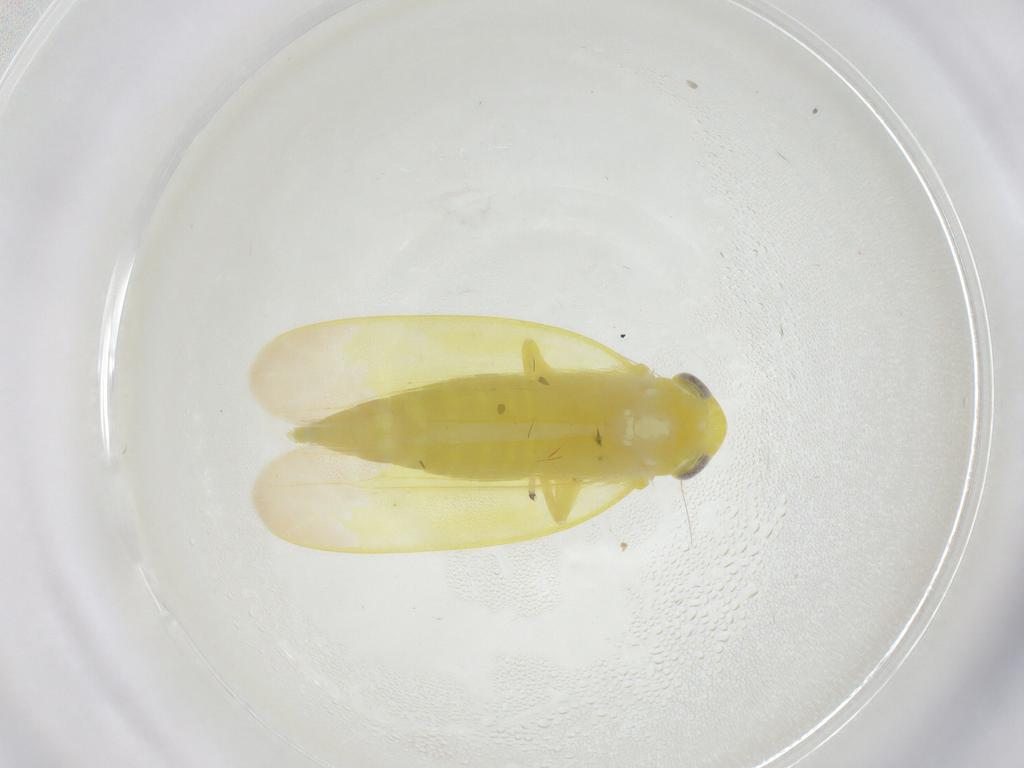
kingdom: Animalia
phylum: Arthropoda
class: Insecta
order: Hemiptera
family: Cicadellidae
